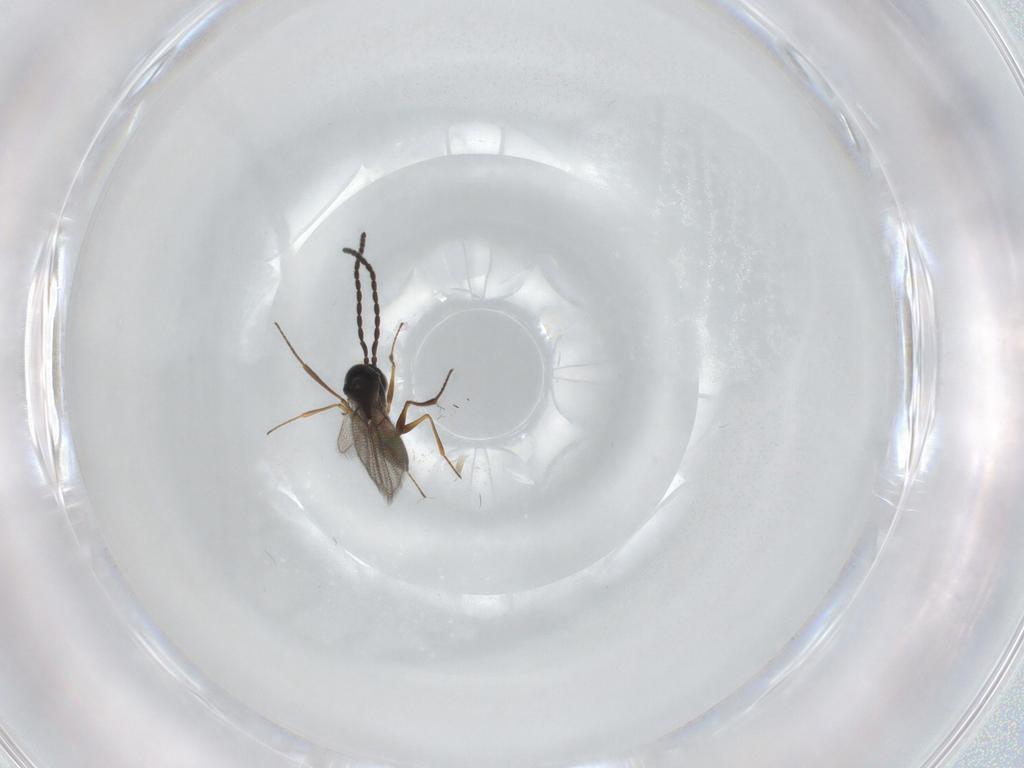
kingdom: Animalia
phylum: Arthropoda
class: Insecta
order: Hymenoptera
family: Figitidae
